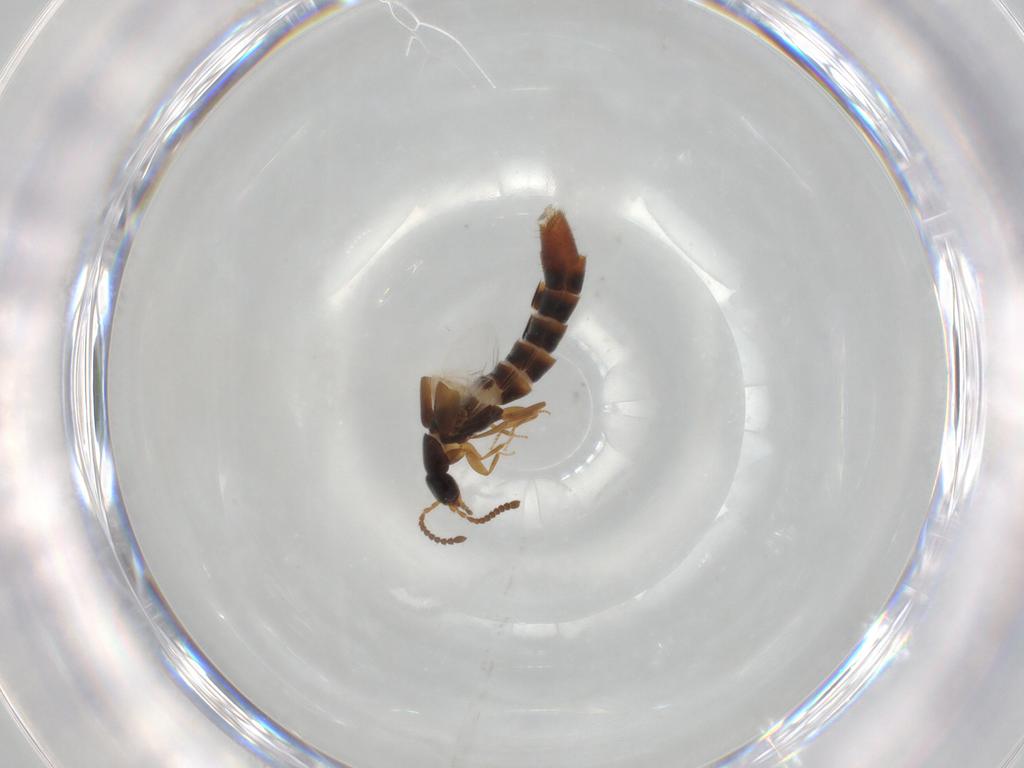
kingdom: Animalia
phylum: Arthropoda
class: Insecta
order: Coleoptera
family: Staphylinidae
